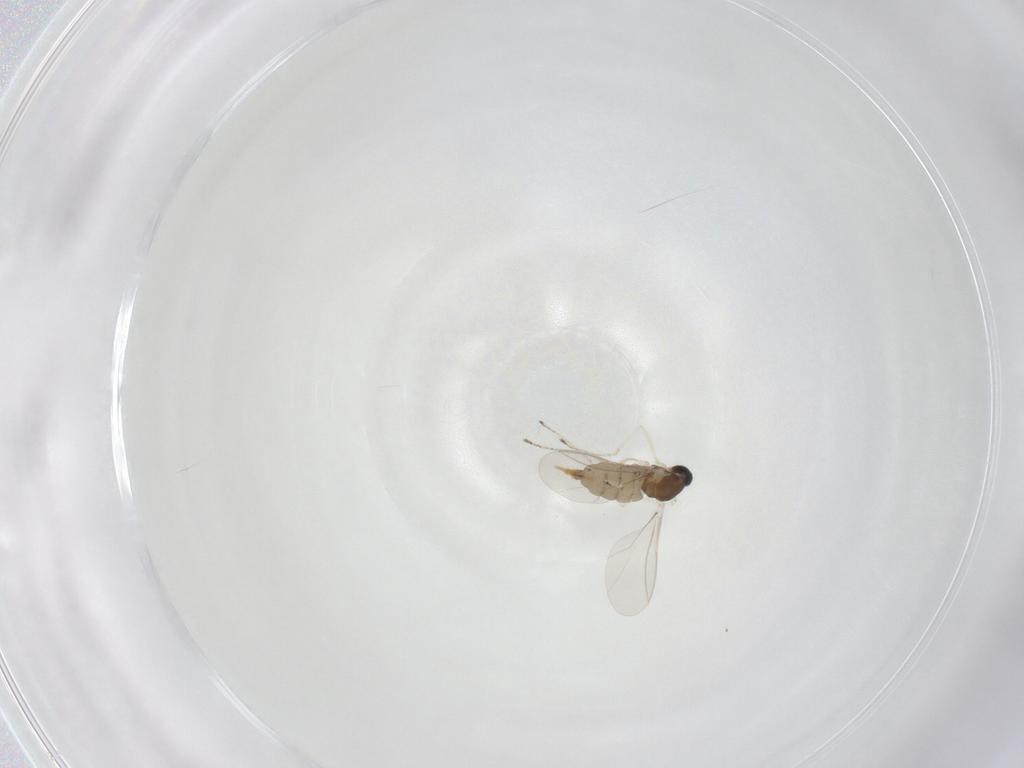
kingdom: Animalia
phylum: Arthropoda
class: Insecta
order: Diptera
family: Cecidomyiidae
